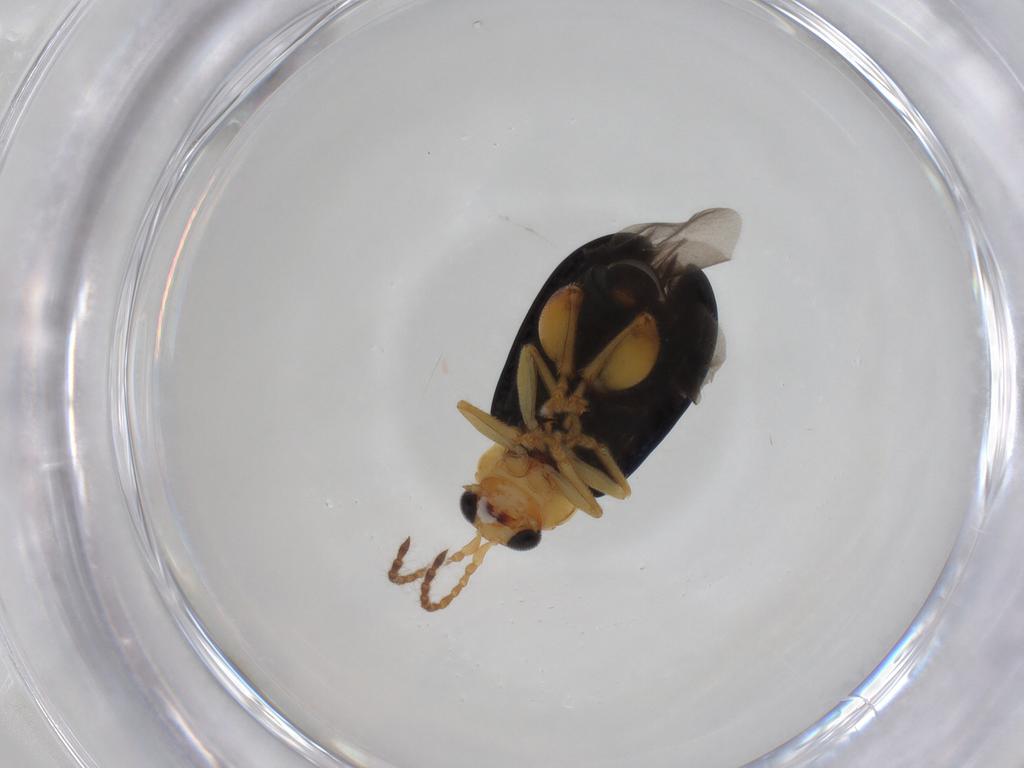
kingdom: Animalia
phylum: Arthropoda
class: Insecta
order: Coleoptera
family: Chrysomelidae
